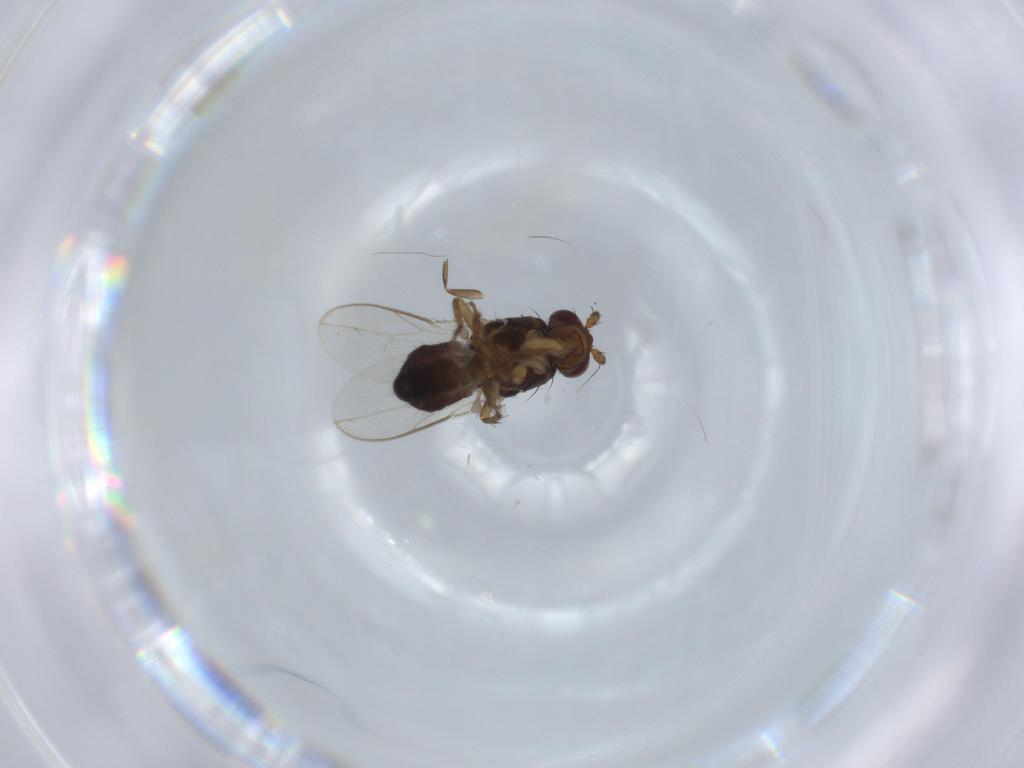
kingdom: Animalia
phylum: Arthropoda
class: Insecta
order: Diptera
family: Phoridae
